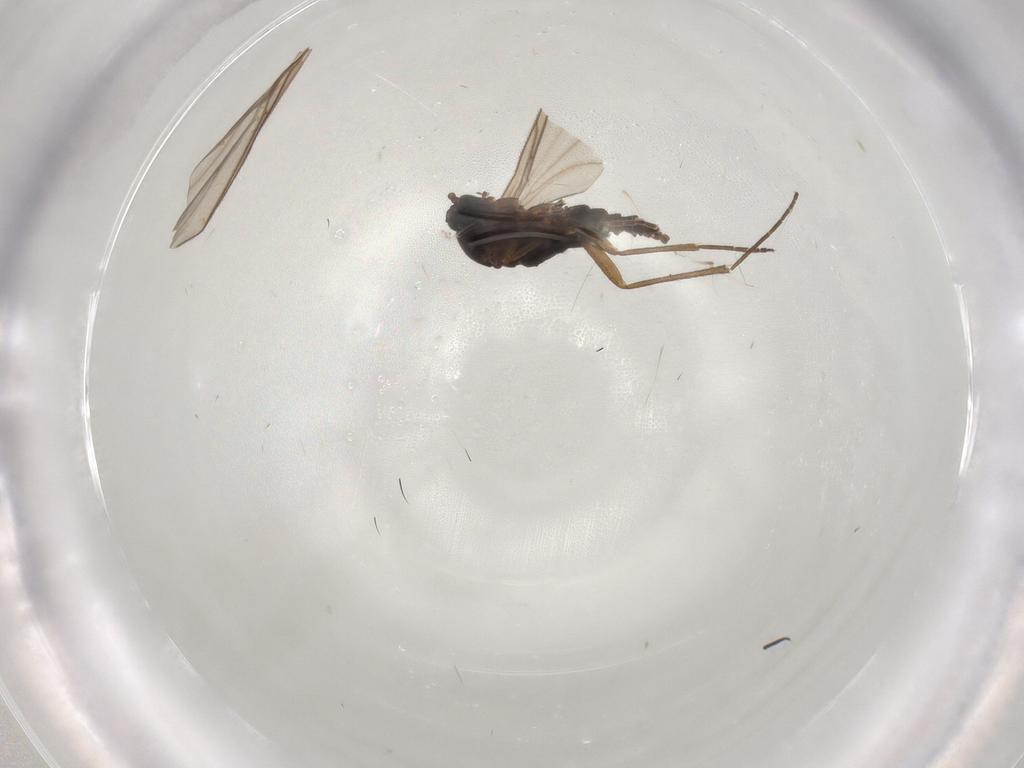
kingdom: Animalia
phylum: Arthropoda
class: Insecta
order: Diptera
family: Sciaridae
